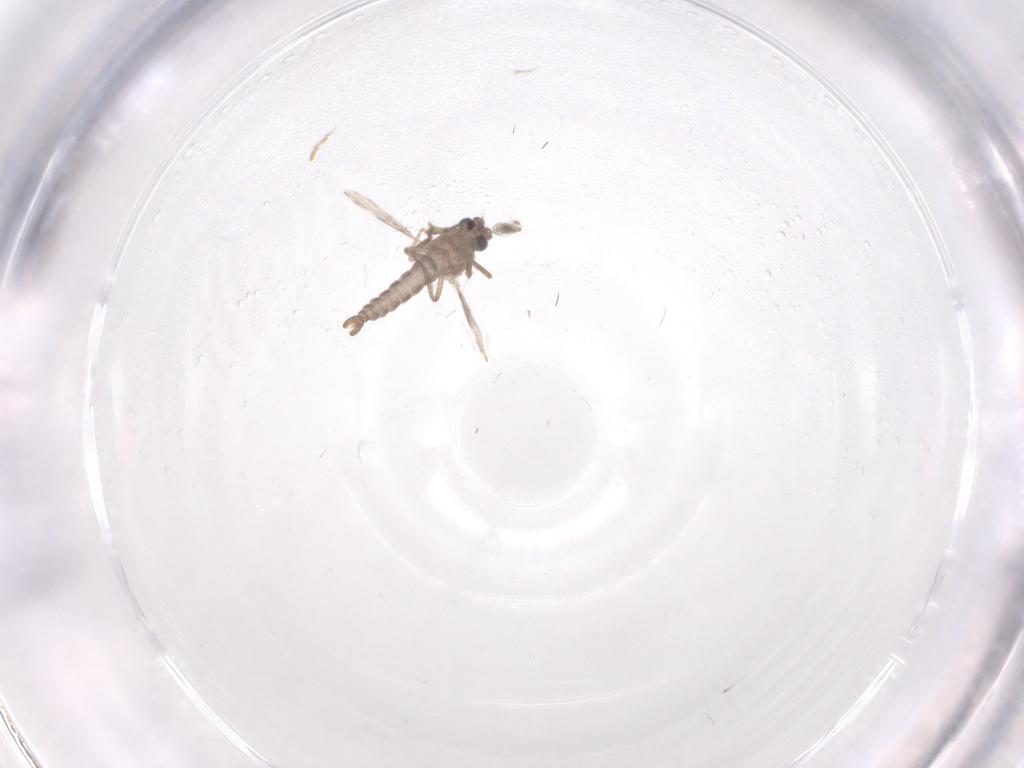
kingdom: Animalia
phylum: Arthropoda
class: Insecta
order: Diptera
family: Ceratopogonidae
